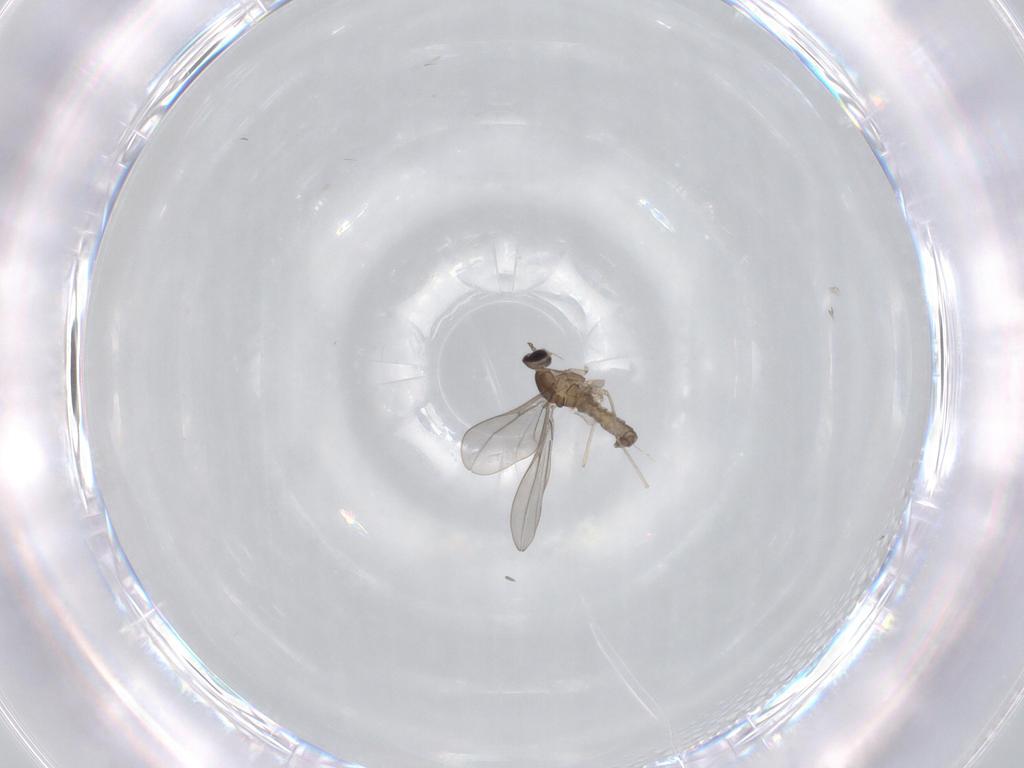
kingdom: Animalia
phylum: Arthropoda
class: Insecta
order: Diptera
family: Cecidomyiidae
